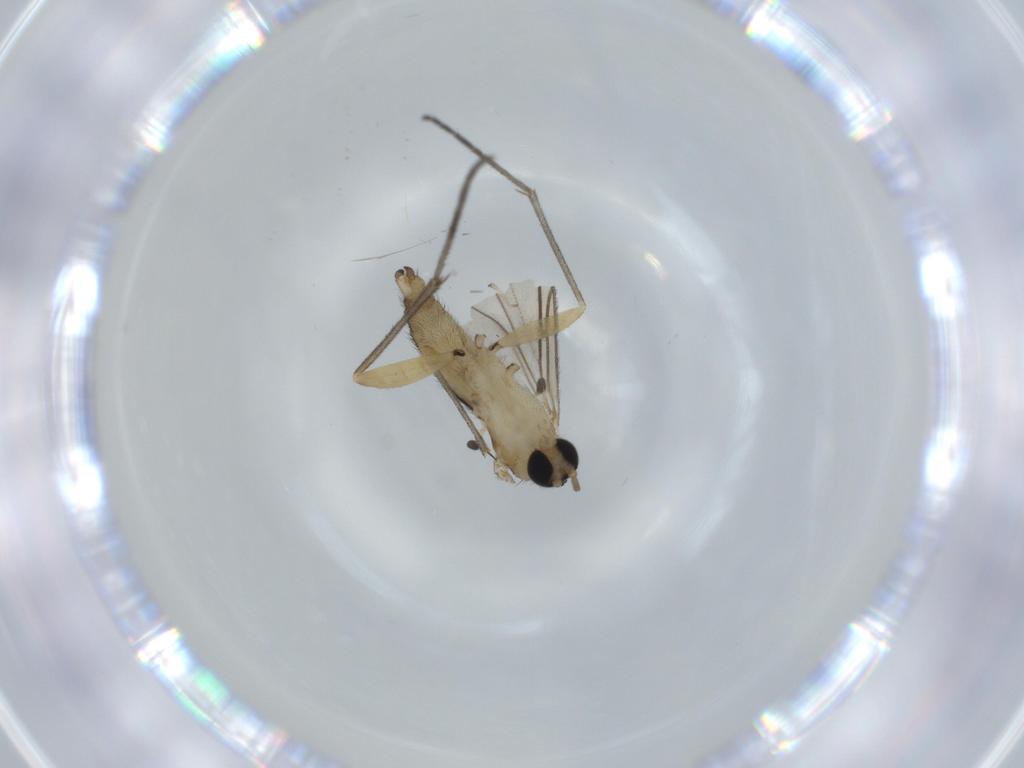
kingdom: Animalia
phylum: Arthropoda
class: Insecta
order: Diptera
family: Sciaridae
